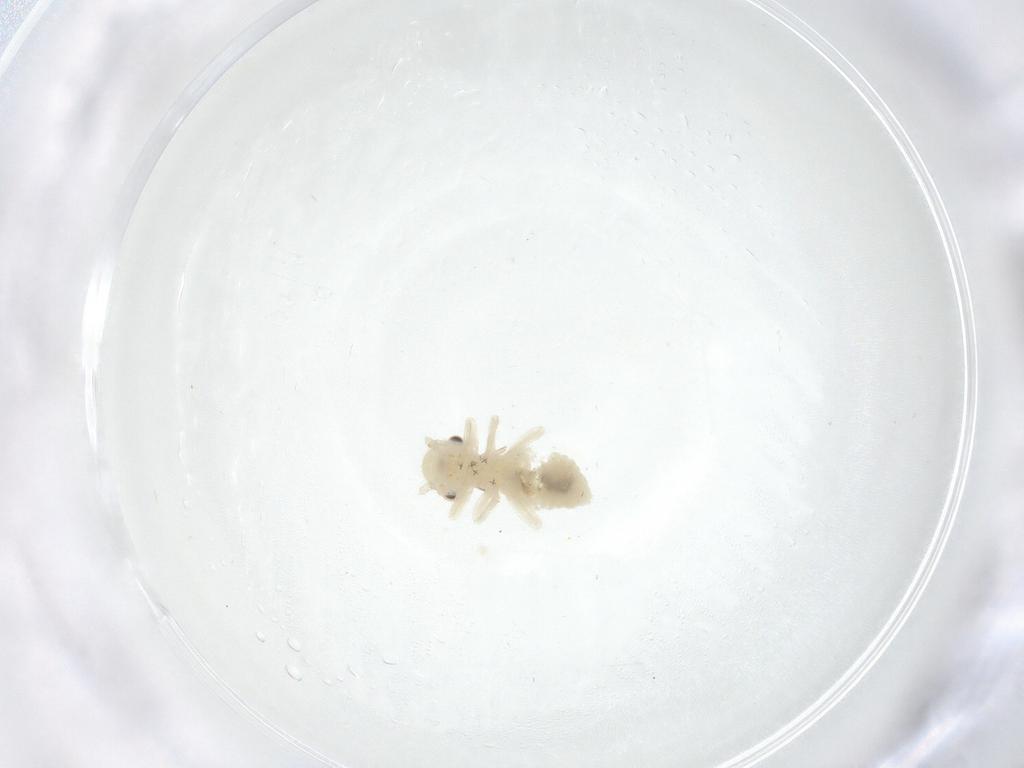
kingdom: Animalia
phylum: Arthropoda
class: Insecta
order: Psocodea
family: Amphipsocidae
